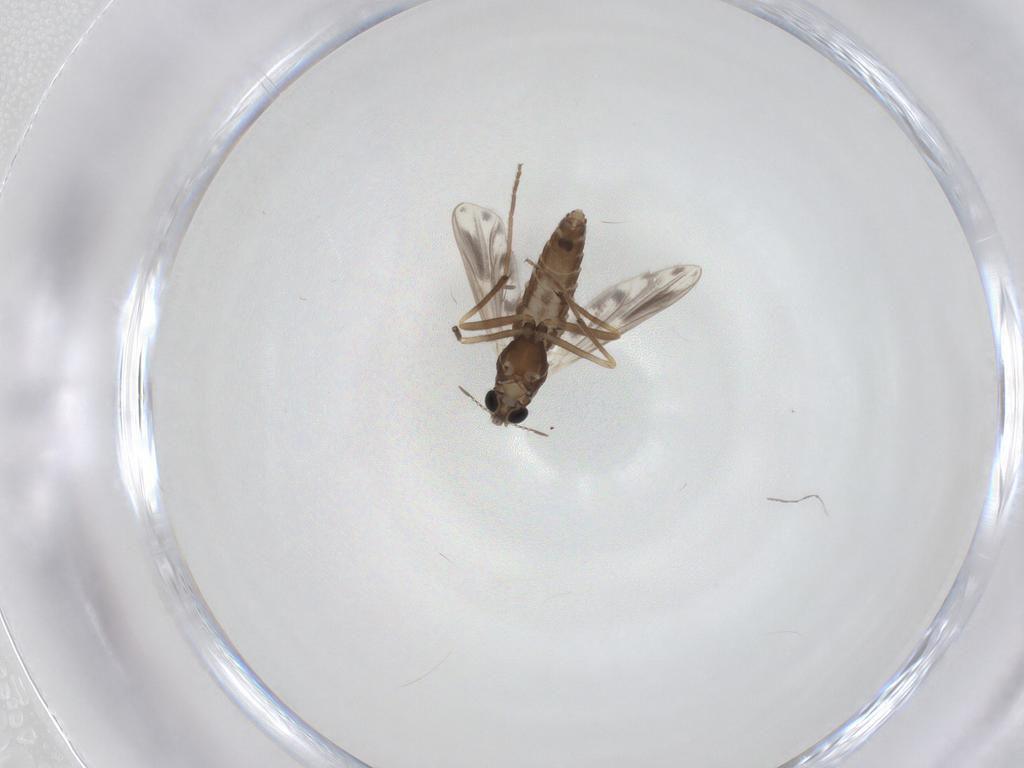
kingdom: Animalia
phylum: Arthropoda
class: Insecta
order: Diptera
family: Chironomidae
